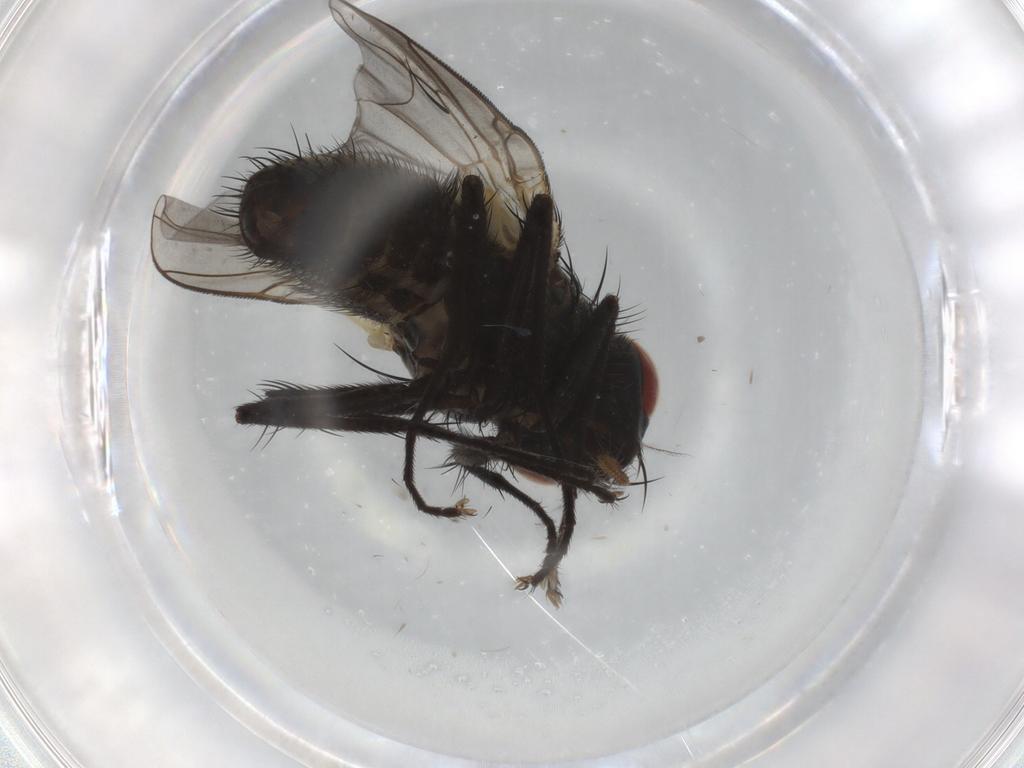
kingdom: Animalia
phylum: Arthropoda
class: Insecta
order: Diptera
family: Muscidae
